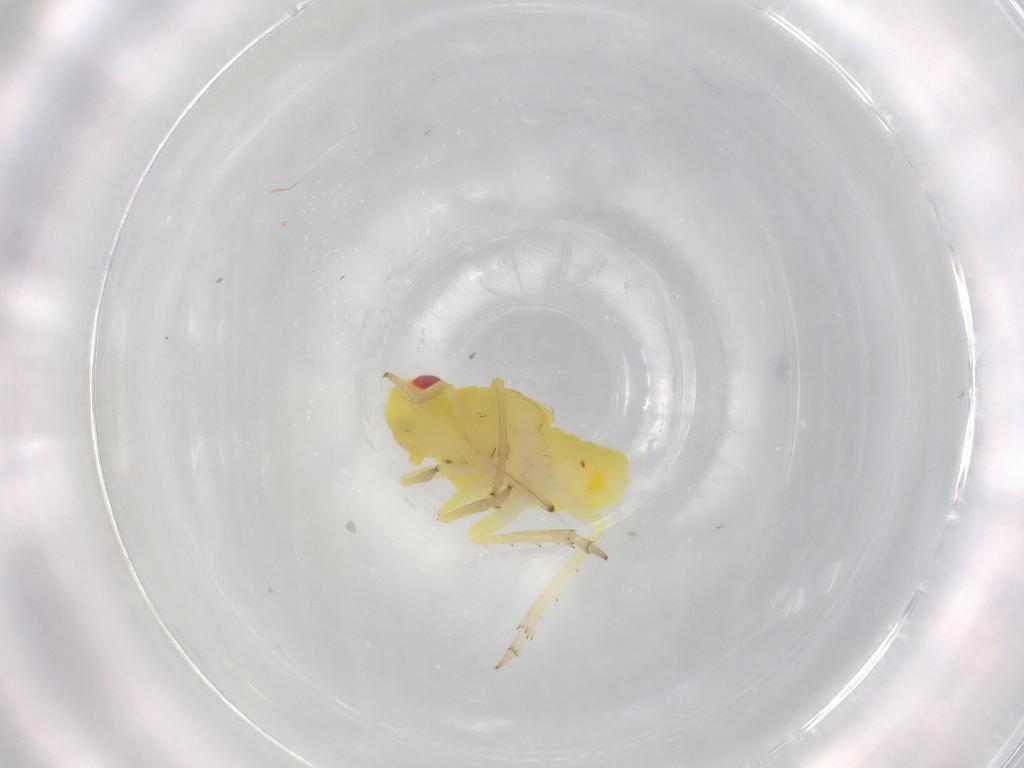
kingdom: Animalia
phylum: Arthropoda
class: Insecta
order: Hemiptera
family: Tropiduchidae
